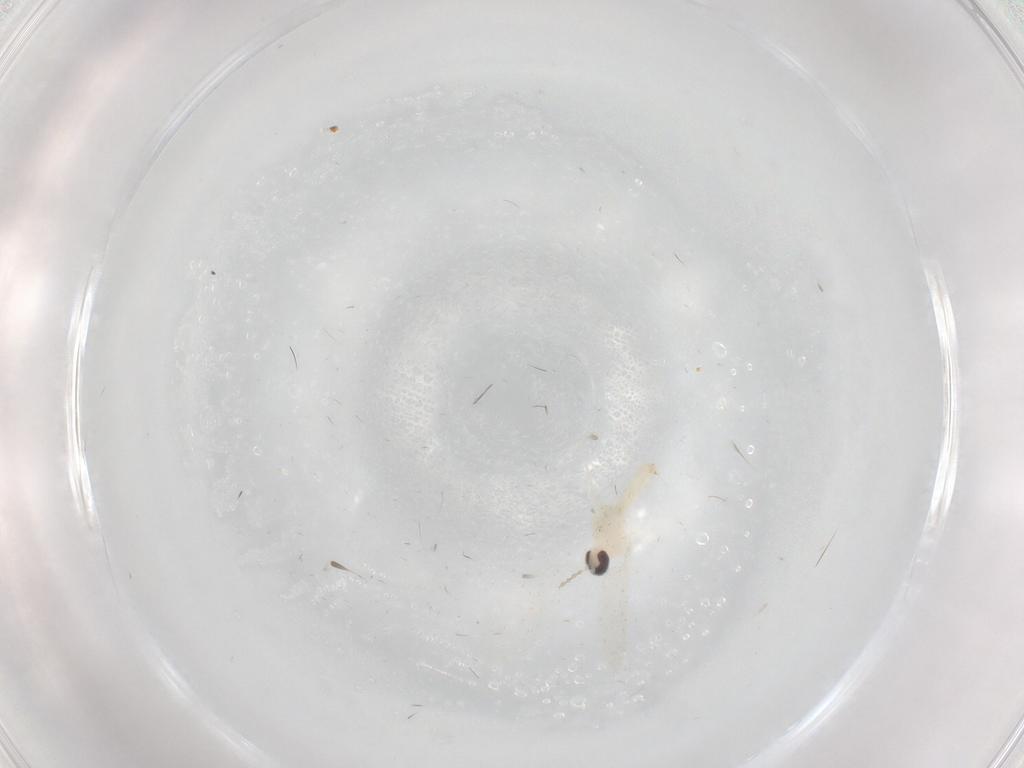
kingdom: Animalia
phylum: Arthropoda
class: Insecta
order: Diptera
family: Cecidomyiidae
